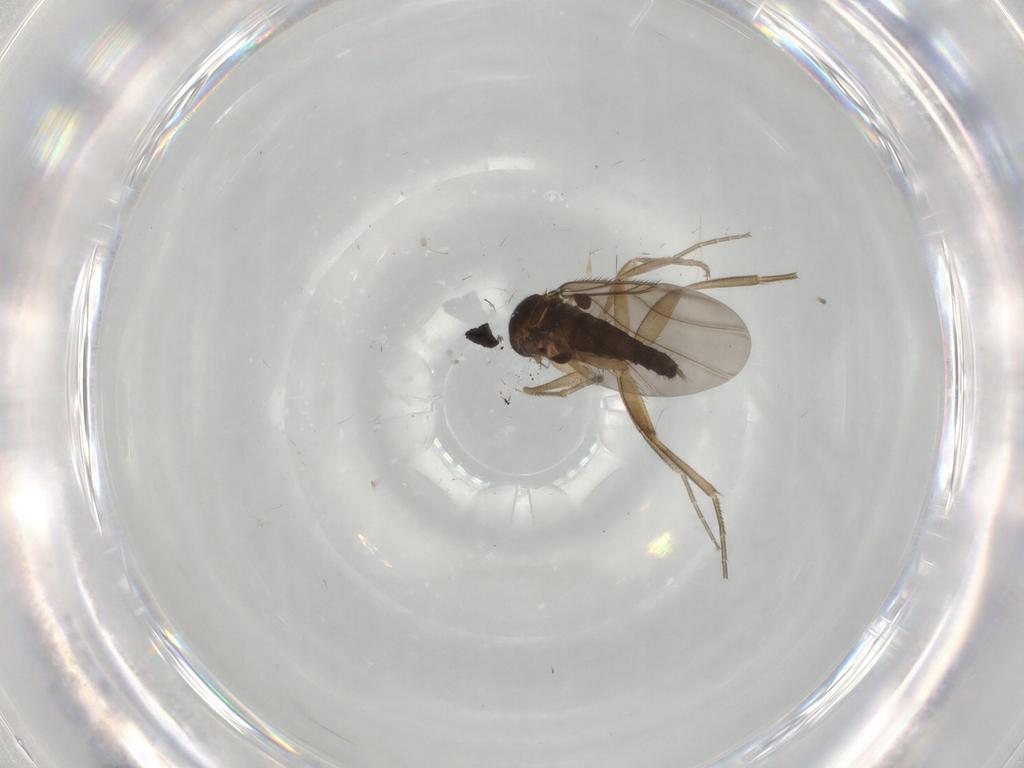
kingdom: Animalia
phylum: Arthropoda
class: Insecta
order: Diptera
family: Phoridae
